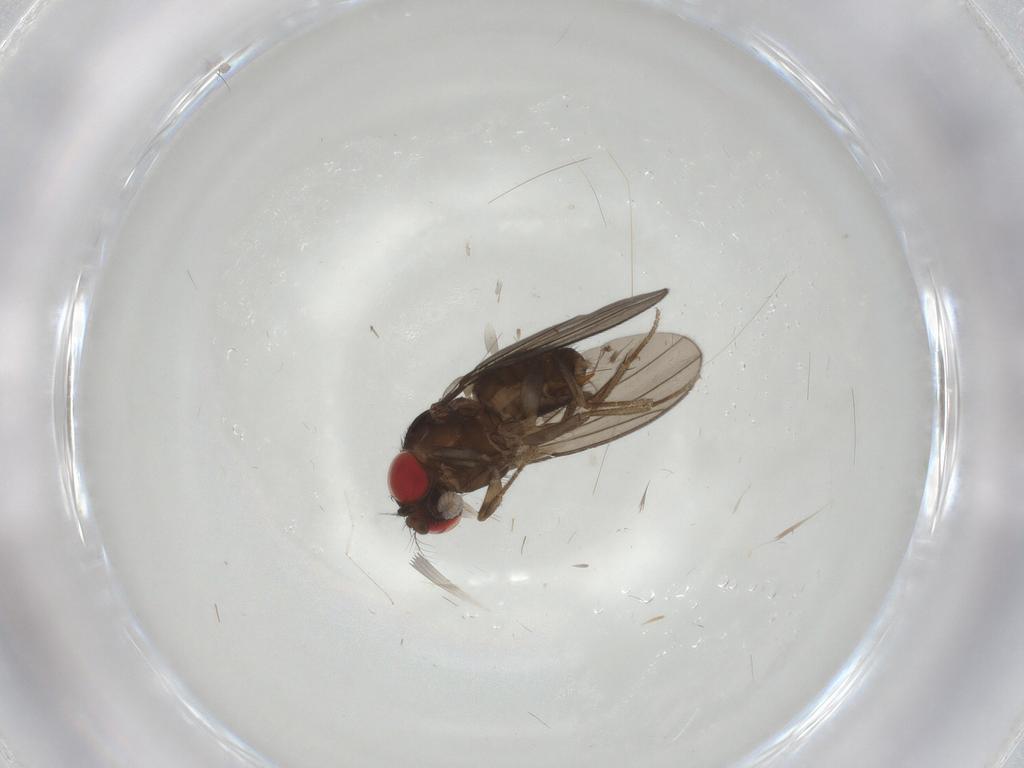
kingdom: Animalia
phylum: Arthropoda
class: Insecta
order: Diptera
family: Drosophilidae
